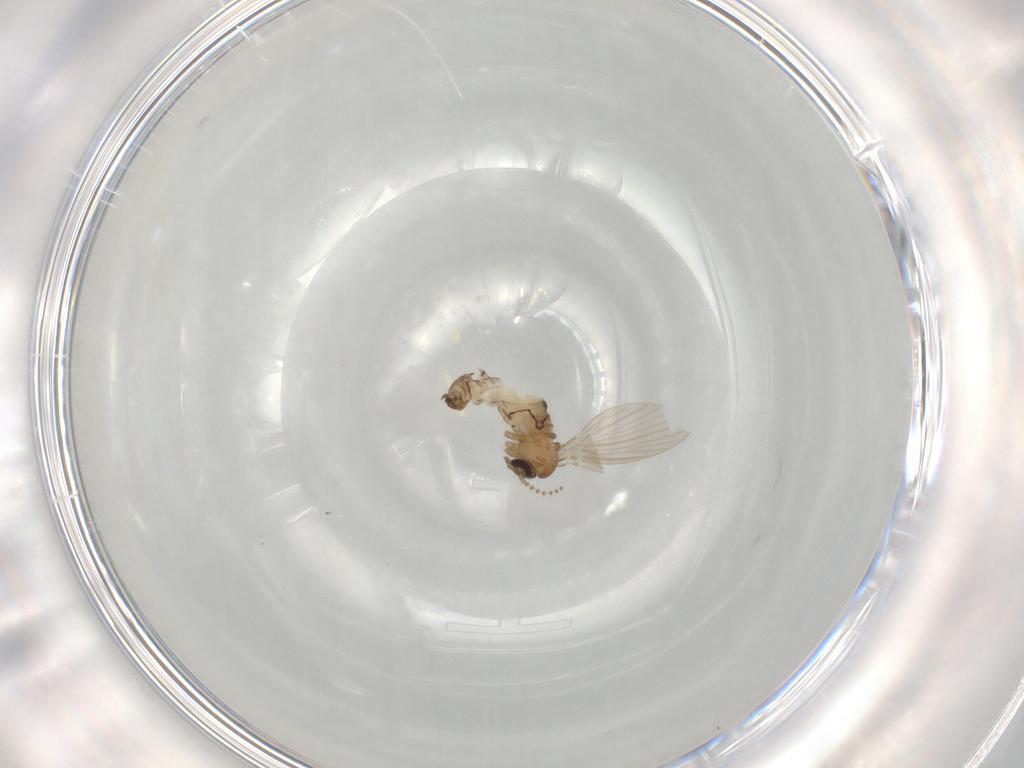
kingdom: Animalia
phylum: Arthropoda
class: Insecta
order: Diptera
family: Psychodidae
